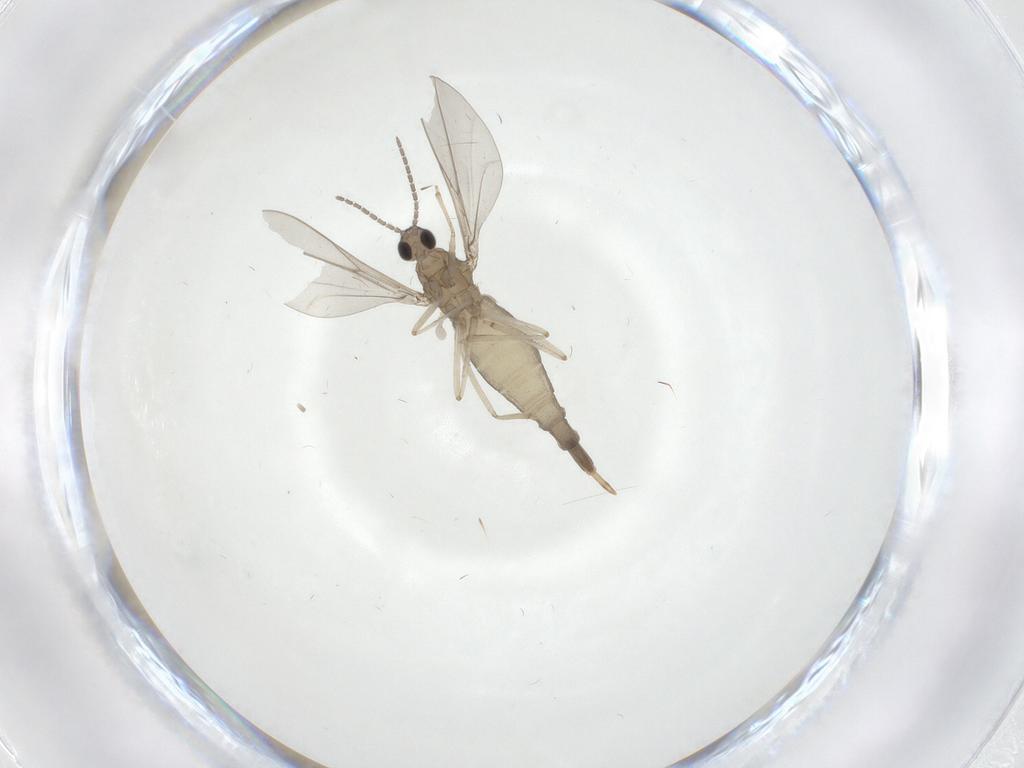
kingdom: Animalia
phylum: Arthropoda
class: Insecta
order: Diptera
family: Cecidomyiidae
